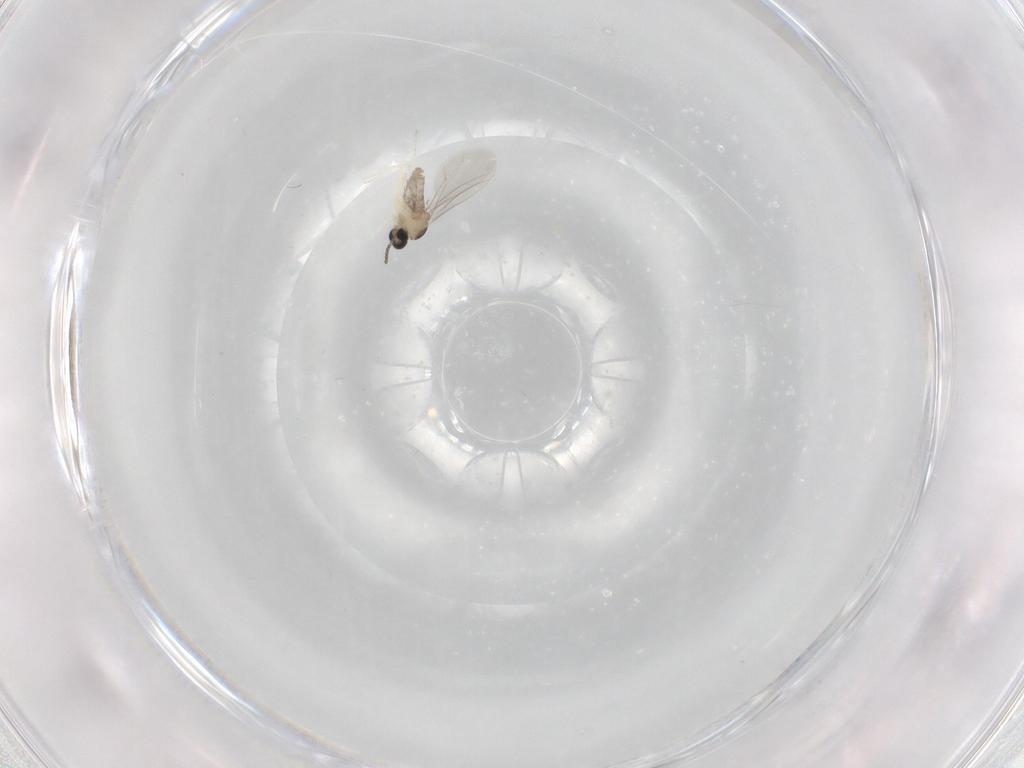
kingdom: Animalia
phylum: Arthropoda
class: Insecta
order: Diptera
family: Cecidomyiidae
